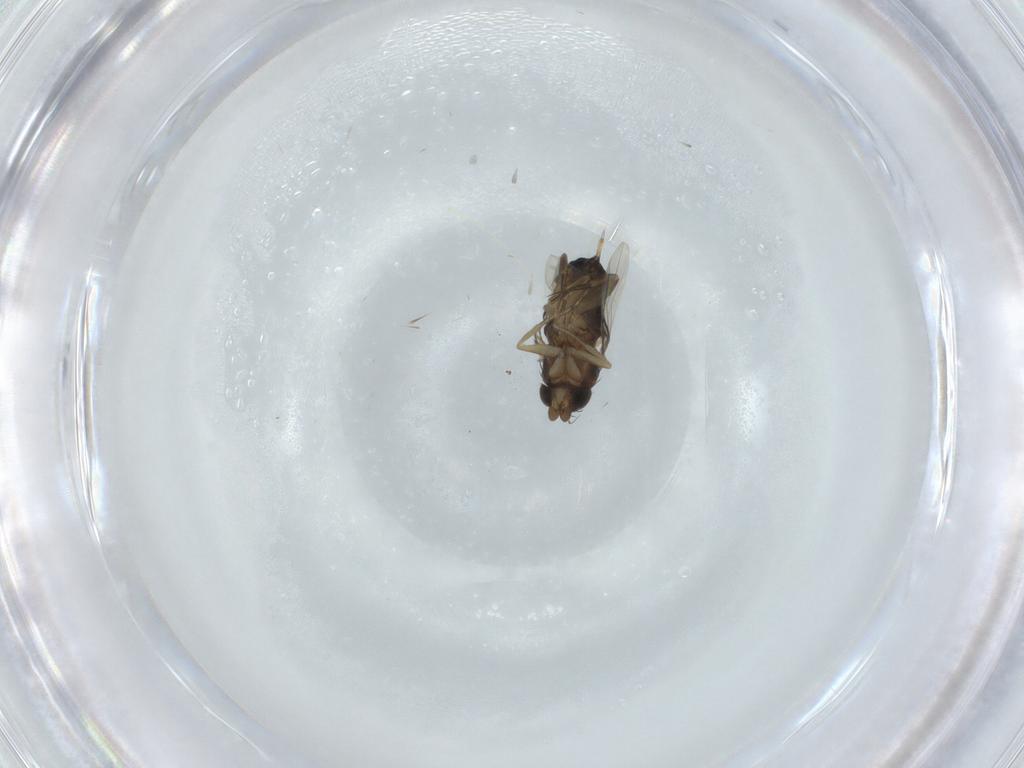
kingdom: Animalia
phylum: Arthropoda
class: Insecta
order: Diptera
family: Phoridae
